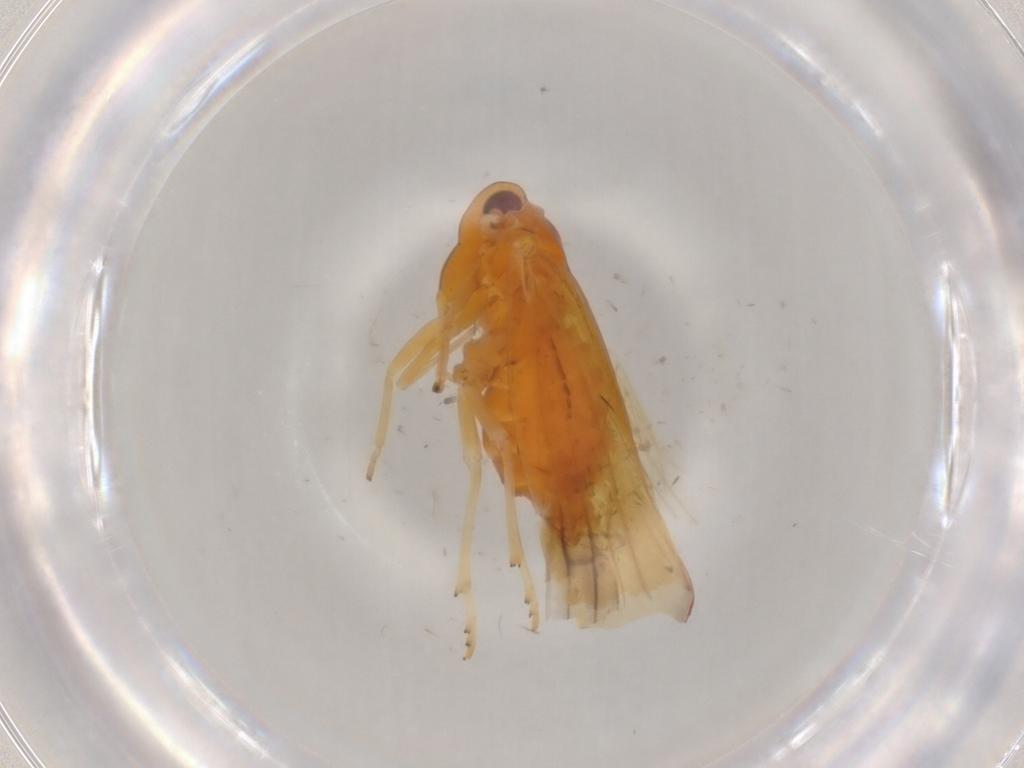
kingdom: Animalia
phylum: Arthropoda
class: Insecta
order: Hemiptera
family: Derbidae
